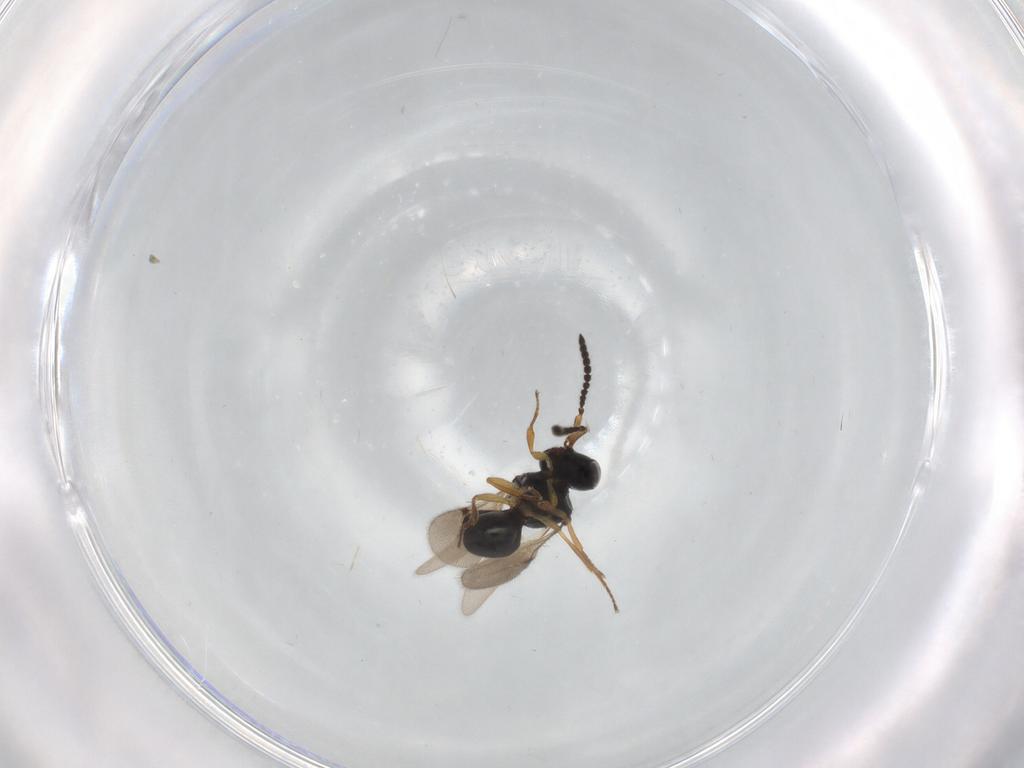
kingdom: Animalia
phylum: Arthropoda
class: Insecta
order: Hymenoptera
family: Scelionidae
